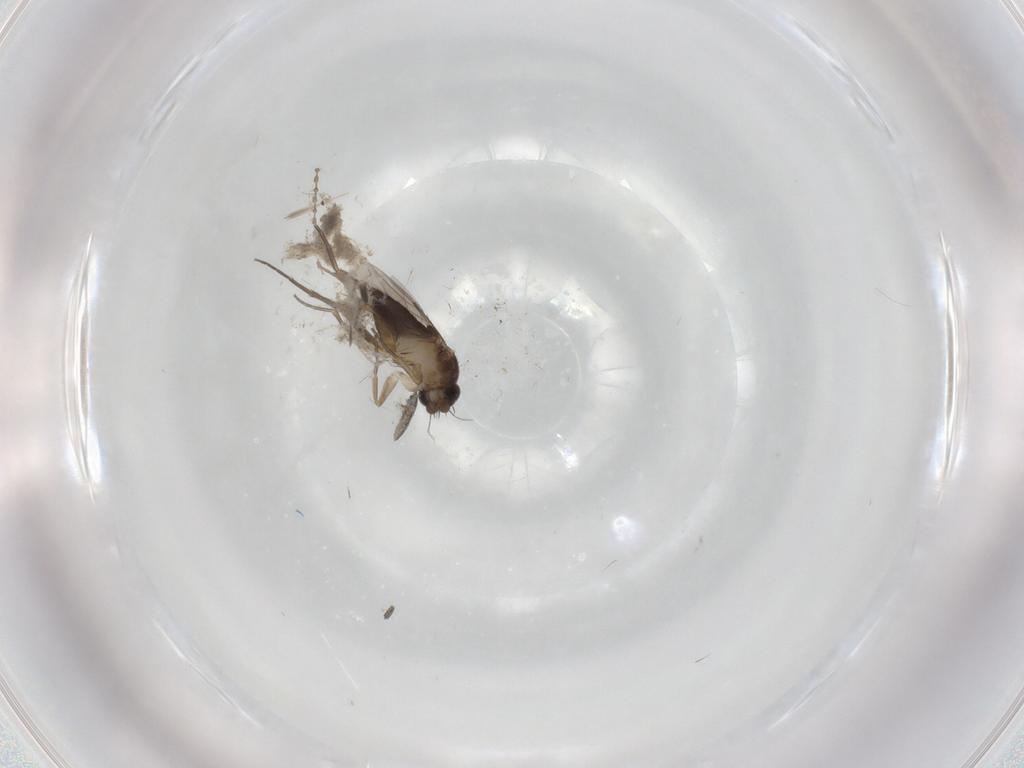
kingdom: Animalia
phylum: Arthropoda
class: Insecta
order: Diptera
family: Phoridae
